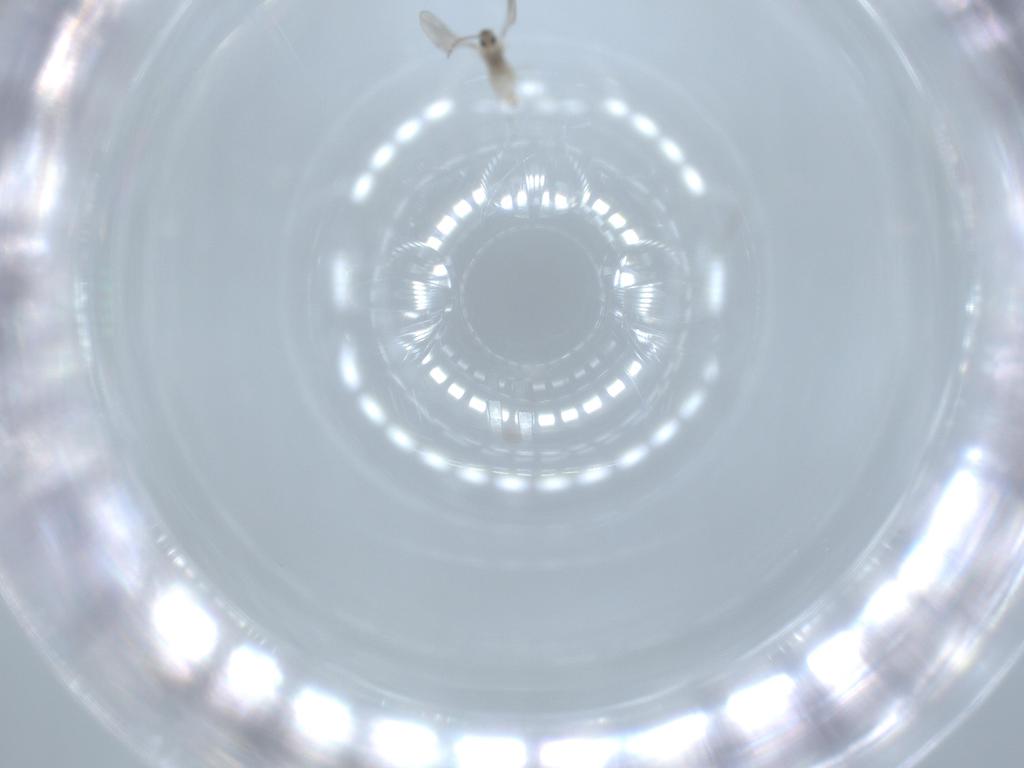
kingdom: Animalia
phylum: Arthropoda
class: Insecta
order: Diptera
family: Cecidomyiidae
